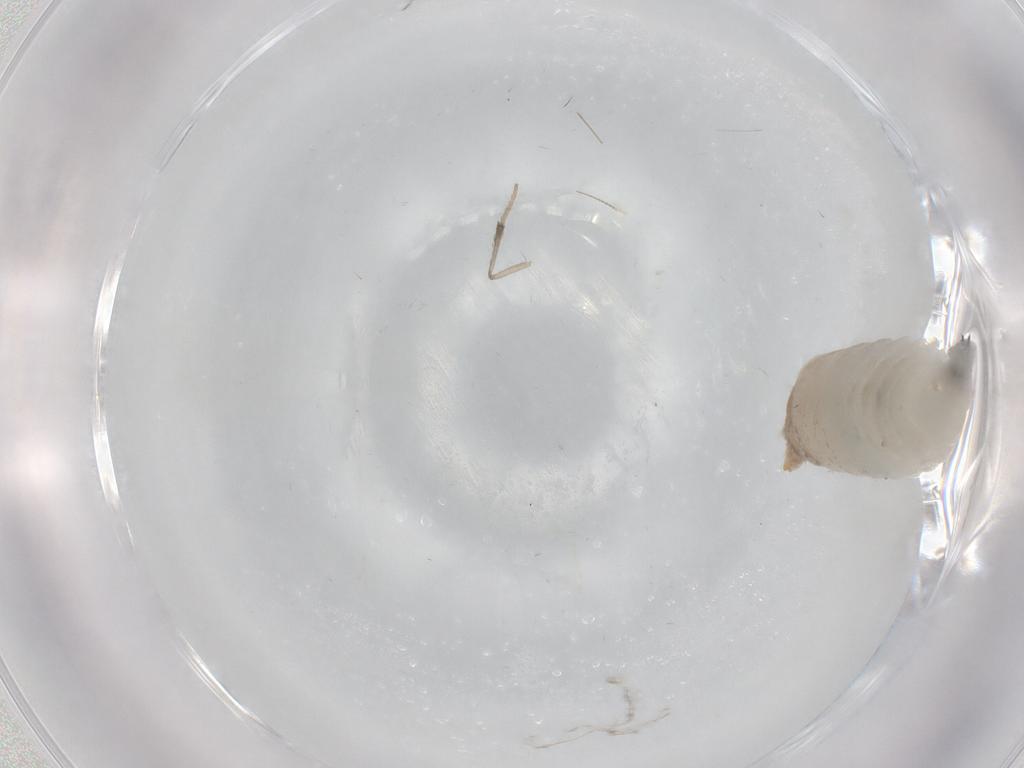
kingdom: Animalia
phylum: Arthropoda
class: Insecta
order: Diptera
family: Psychodidae
